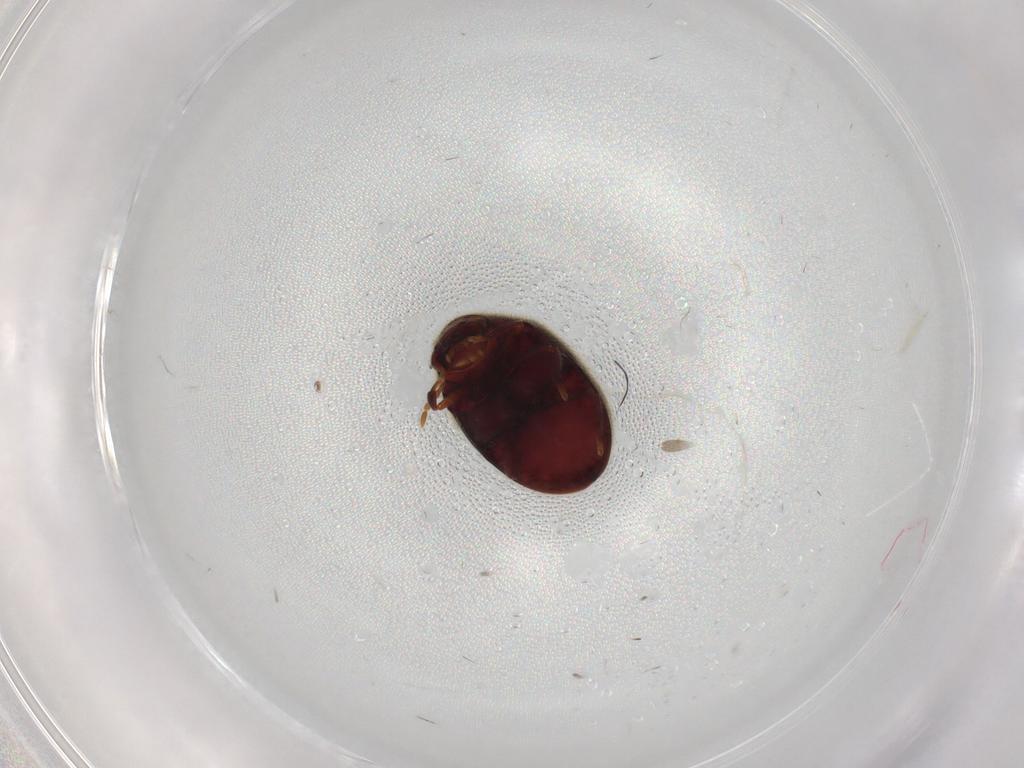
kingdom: Animalia
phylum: Arthropoda
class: Insecta
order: Coleoptera
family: Ptinidae
